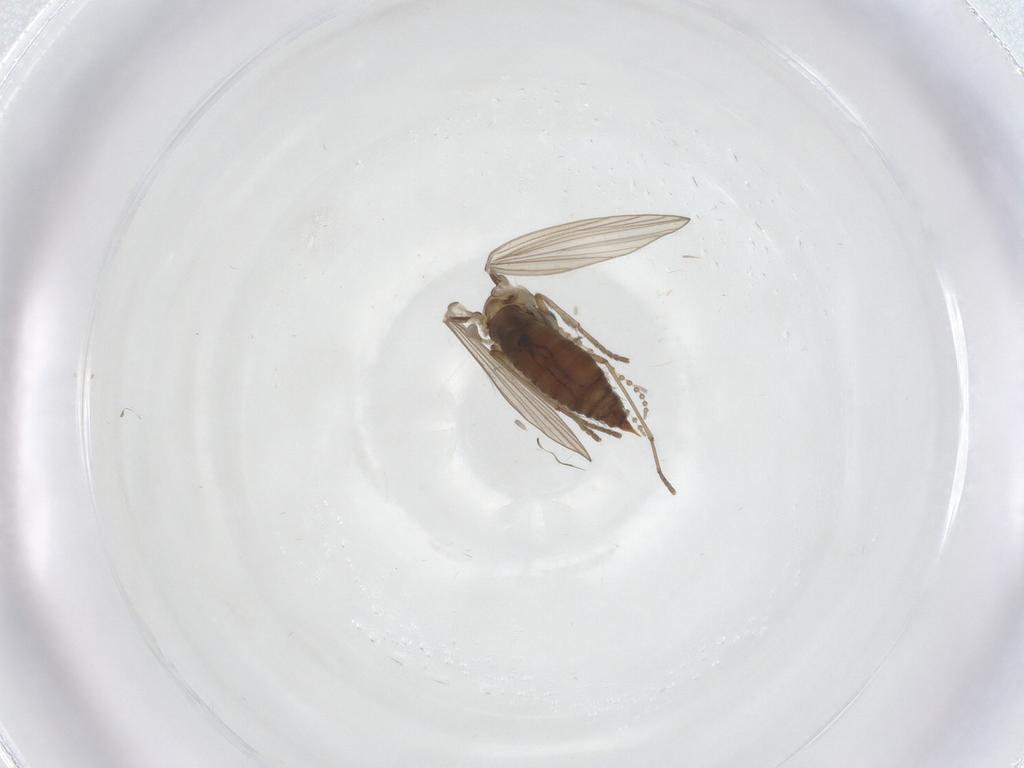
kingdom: Animalia
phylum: Arthropoda
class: Insecta
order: Diptera
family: Psychodidae
